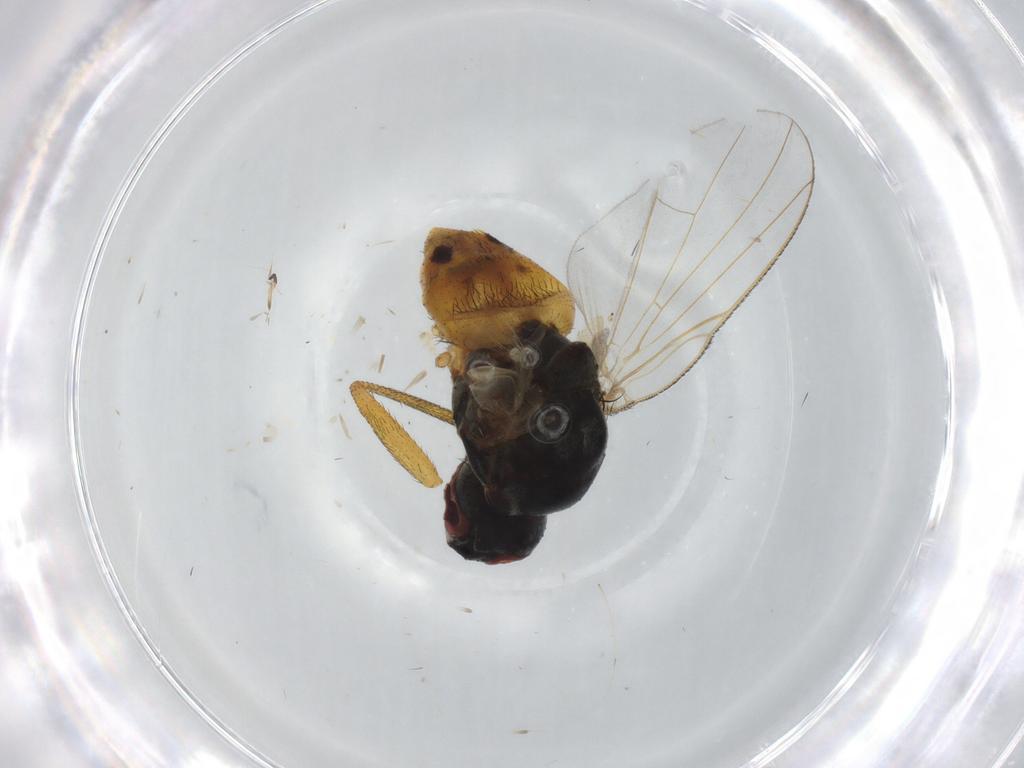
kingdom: Animalia
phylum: Arthropoda
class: Insecta
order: Diptera
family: Muscidae
